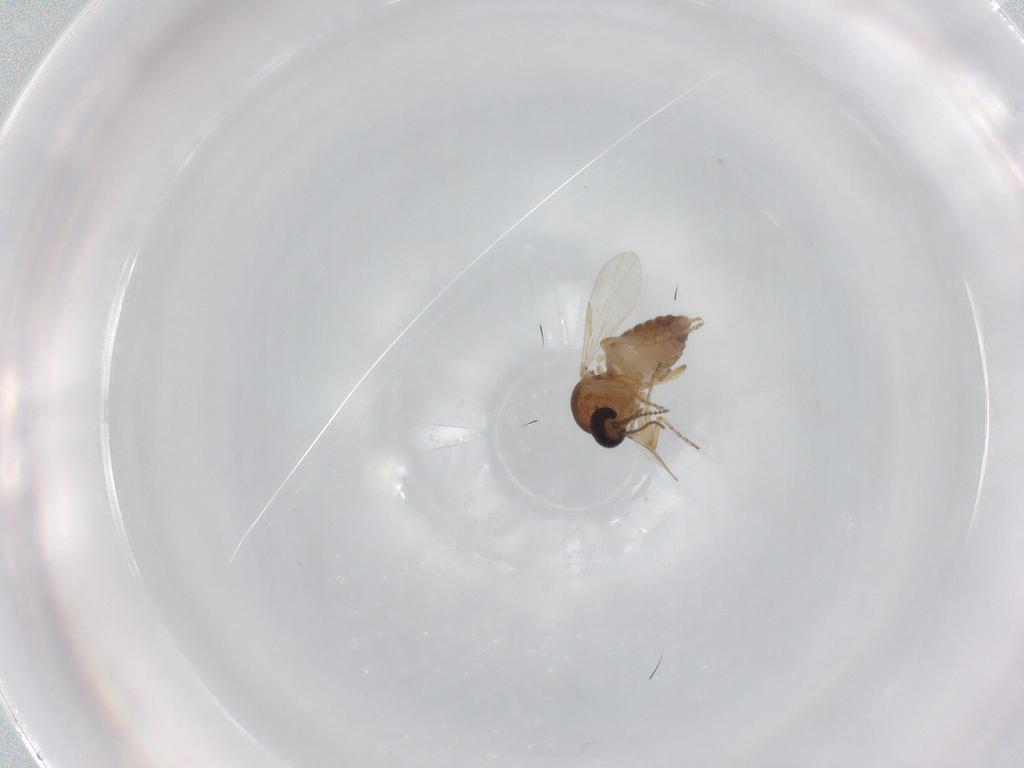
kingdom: Animalia
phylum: Arthropoda
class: Insecta
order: Diptera
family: Ceratopogonidae
